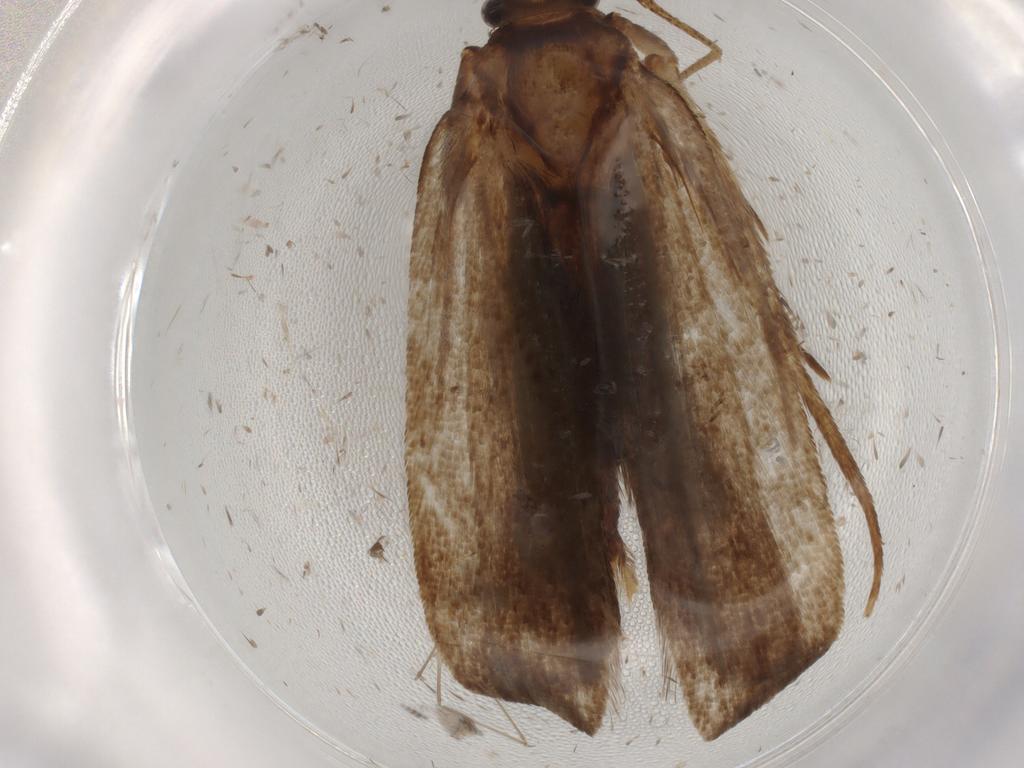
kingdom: Animalia
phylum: Arthropoda
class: Insecta
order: Lepidoptera
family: Autostichidae
